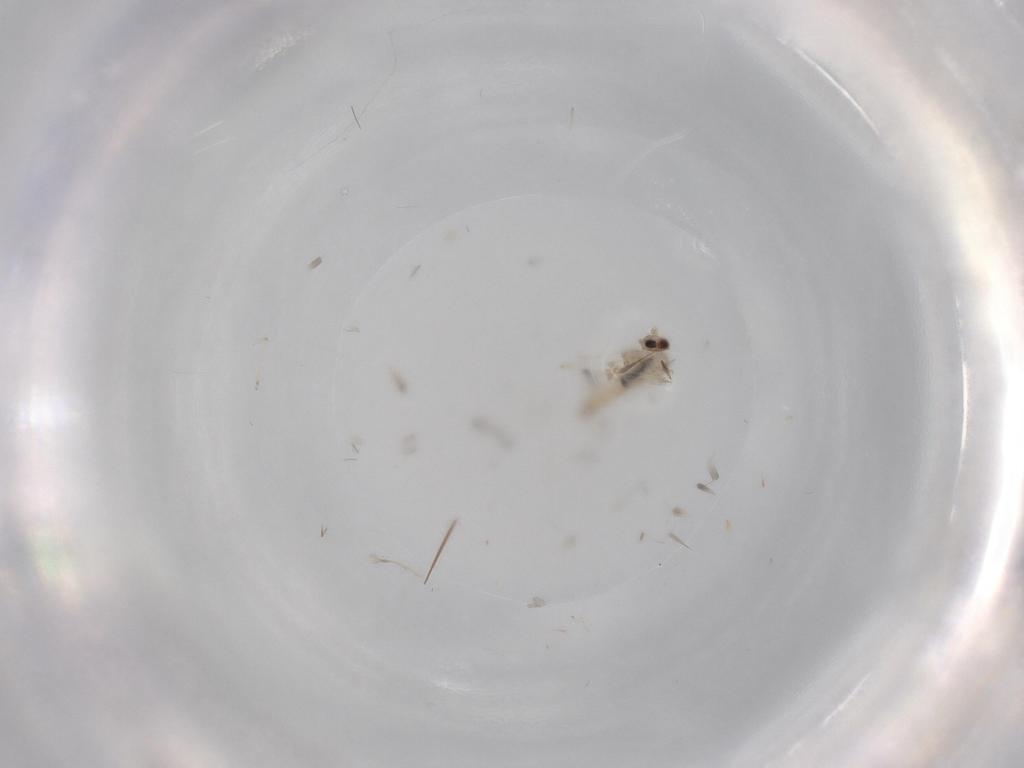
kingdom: Animalia
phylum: Arthropoda
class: Insecta
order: Diptera
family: Cecidomyiidae
